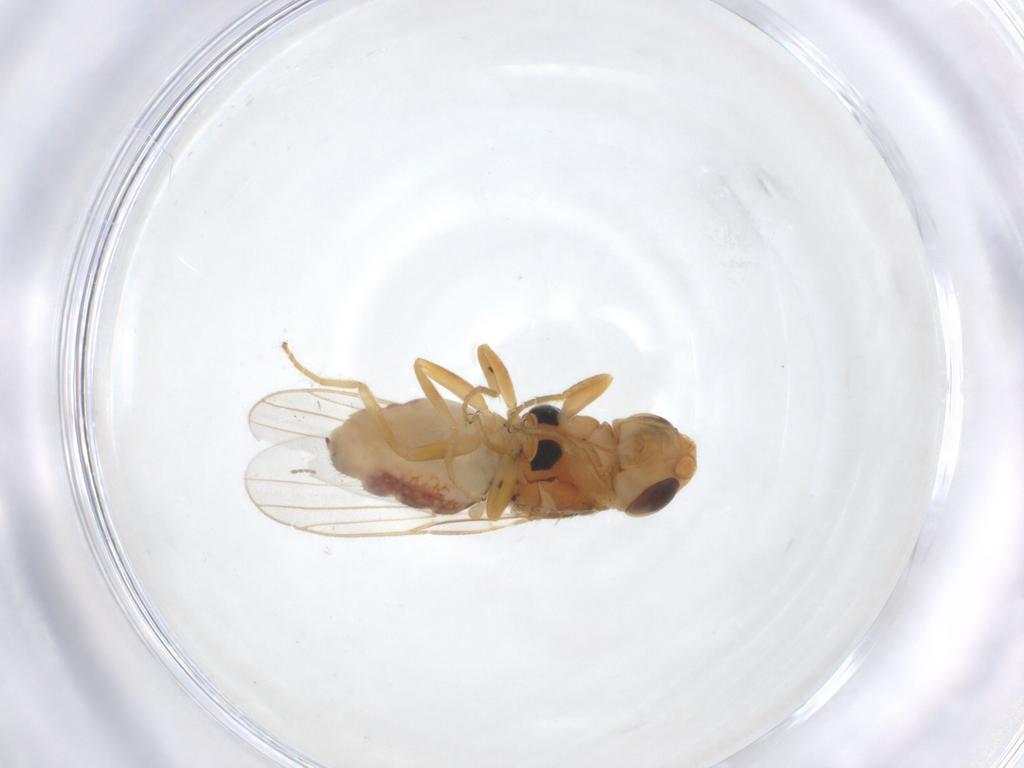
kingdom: Animalia
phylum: Arthropoda
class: Insecta
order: Diptera
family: Chloropidae
